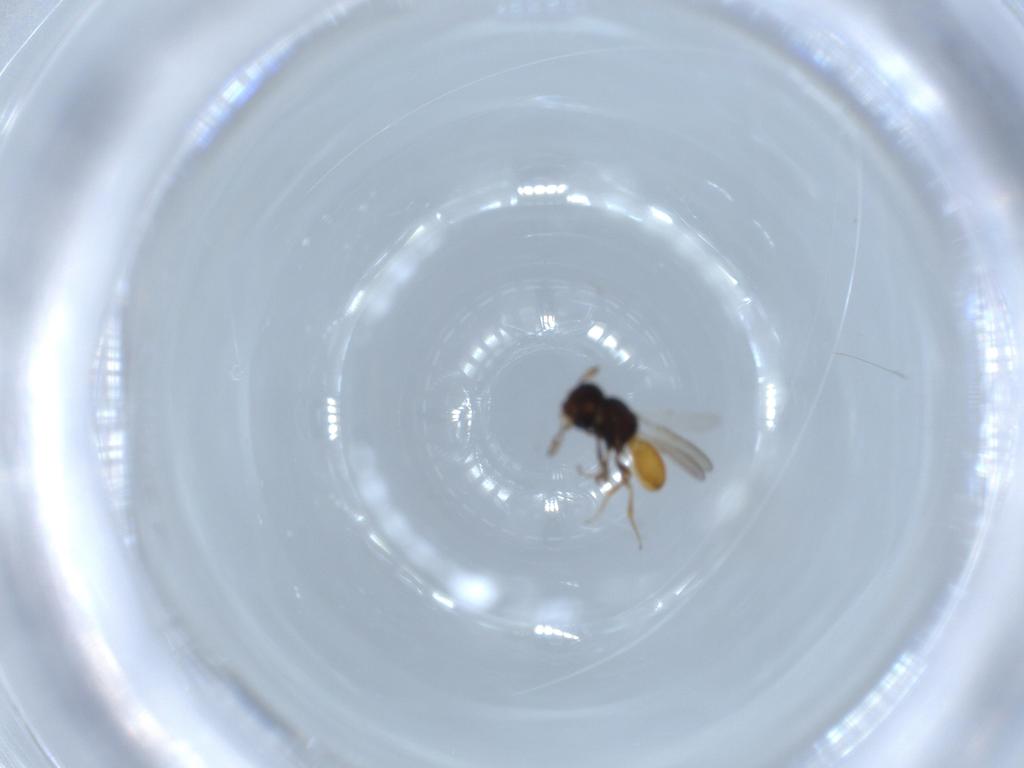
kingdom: Animalia
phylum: Arthropoda
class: Insecta
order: Hymenoptera
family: Scelionidae
